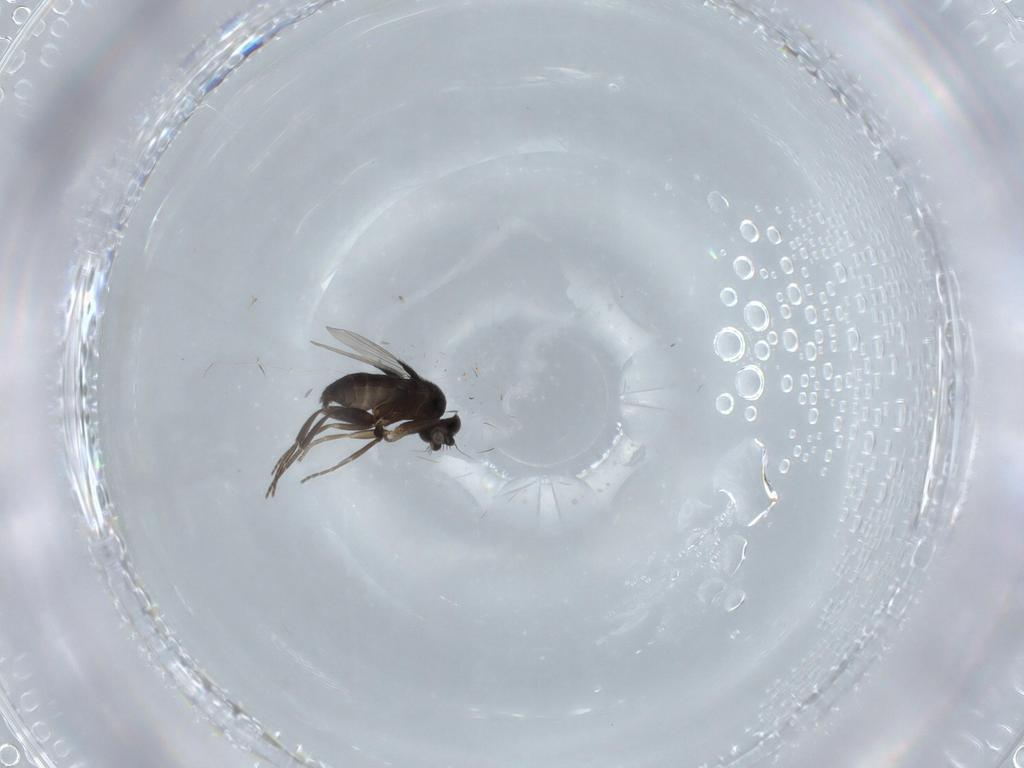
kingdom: Animalia
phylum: Arthropoda
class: Insecta
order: Diptera
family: Phoridae
